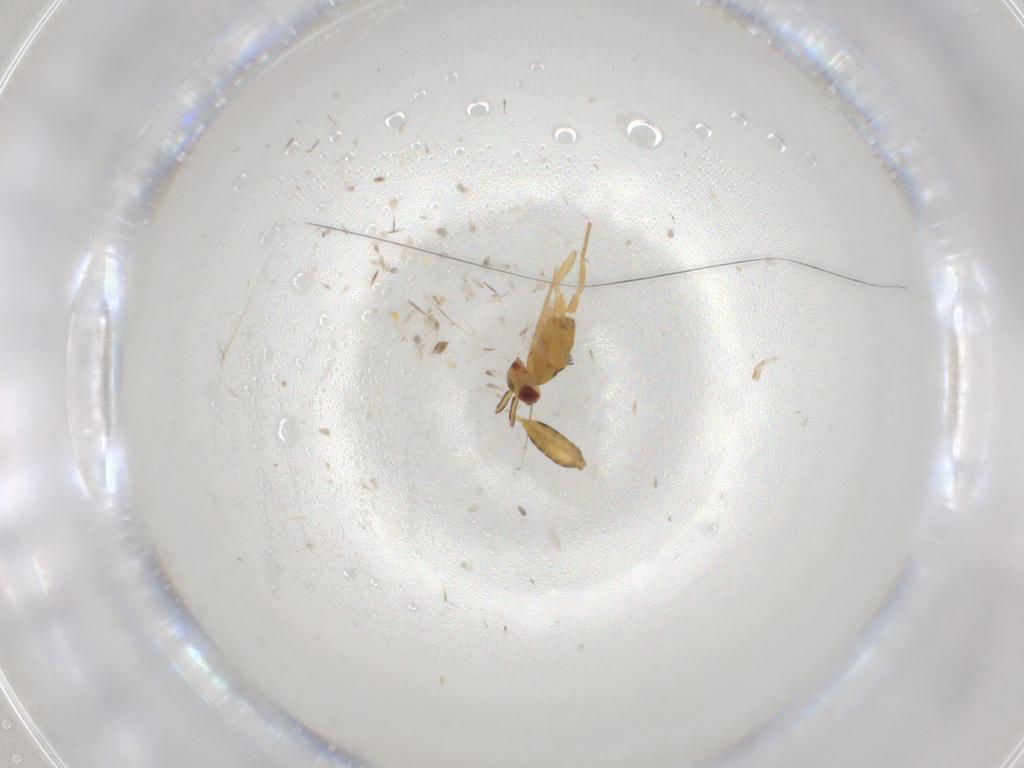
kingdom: Animalia
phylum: Arthropoda
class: Insecta
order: Hymenoptera
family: Eulophidae
